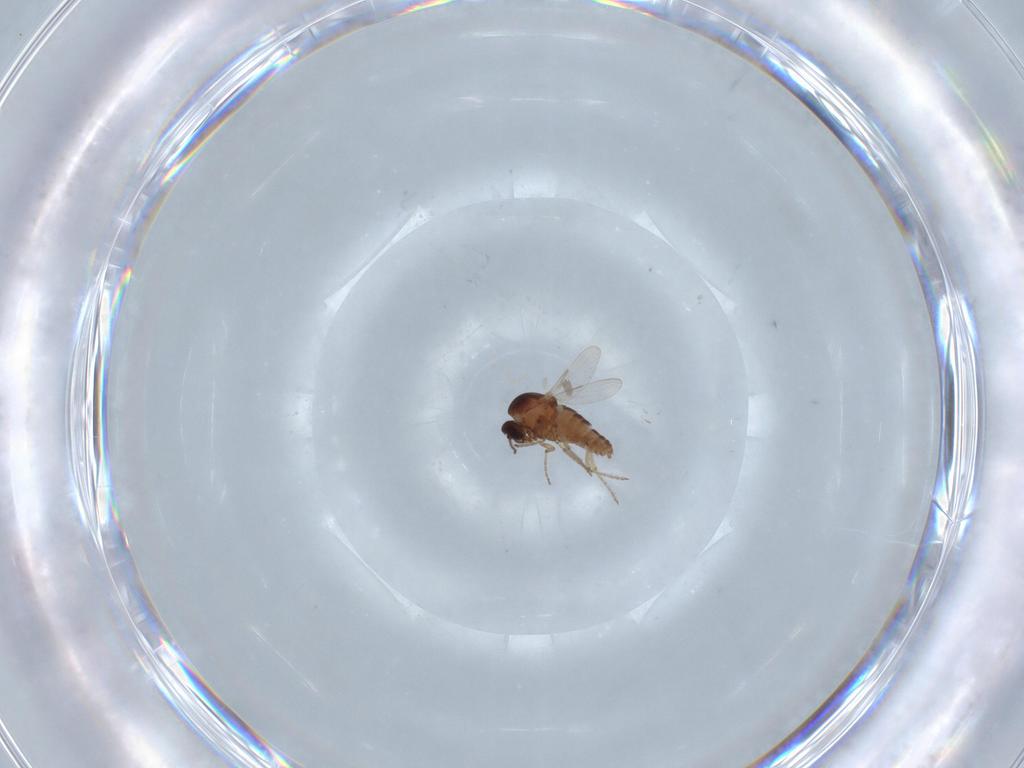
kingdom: Animalia
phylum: Arthropoda
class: Insecta
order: Diptera
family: Ceratopogonidae
